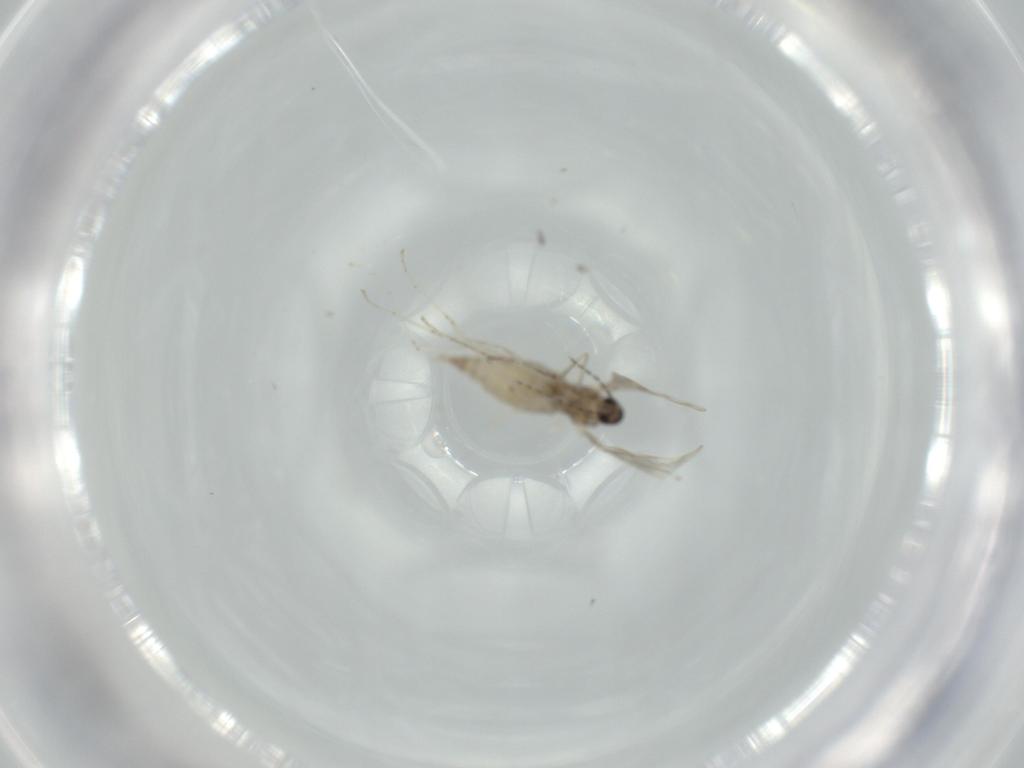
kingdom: Animalia
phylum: Arthropoda
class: Insecta
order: Diptera
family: Cecidomyiidae
